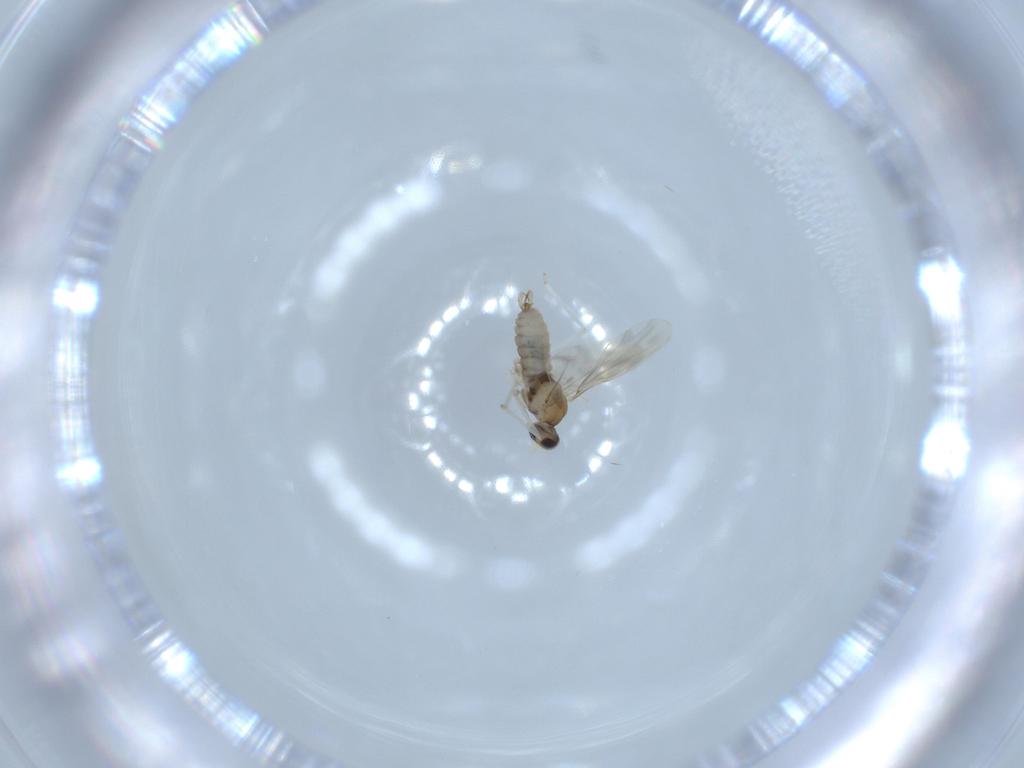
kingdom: Animalia
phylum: Arthropoda
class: Insecta
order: Diptera
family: Cecidomyiidae
